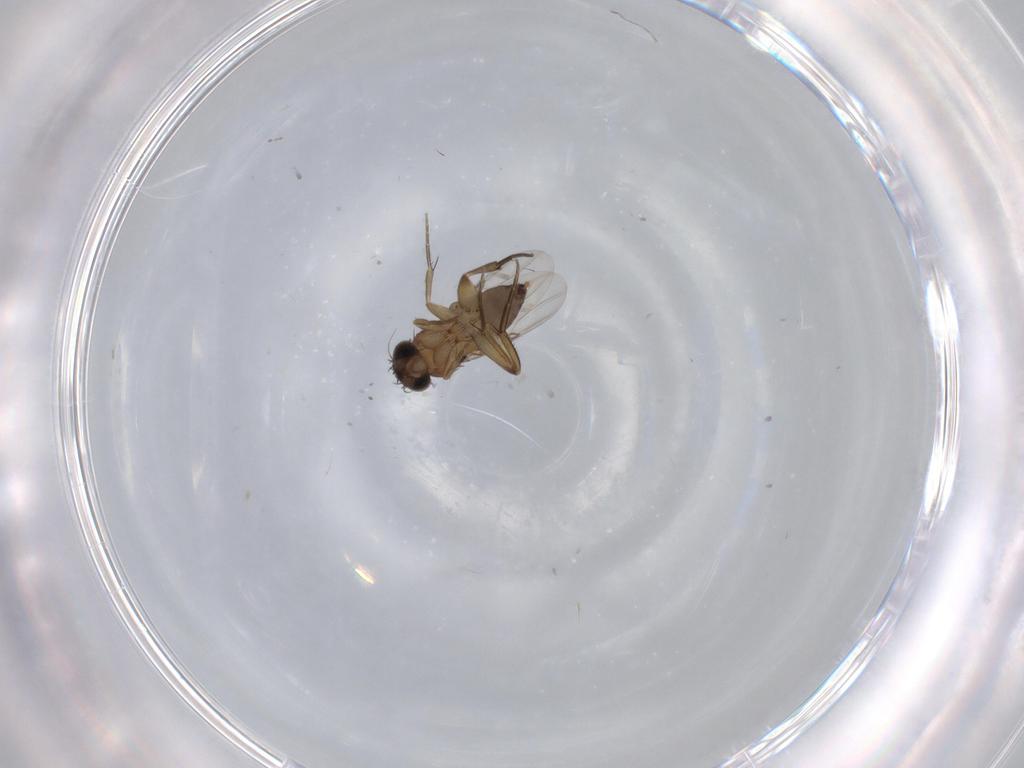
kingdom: Animalia
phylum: Arthropoda
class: Insecta
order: Diptera
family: Phoridae
